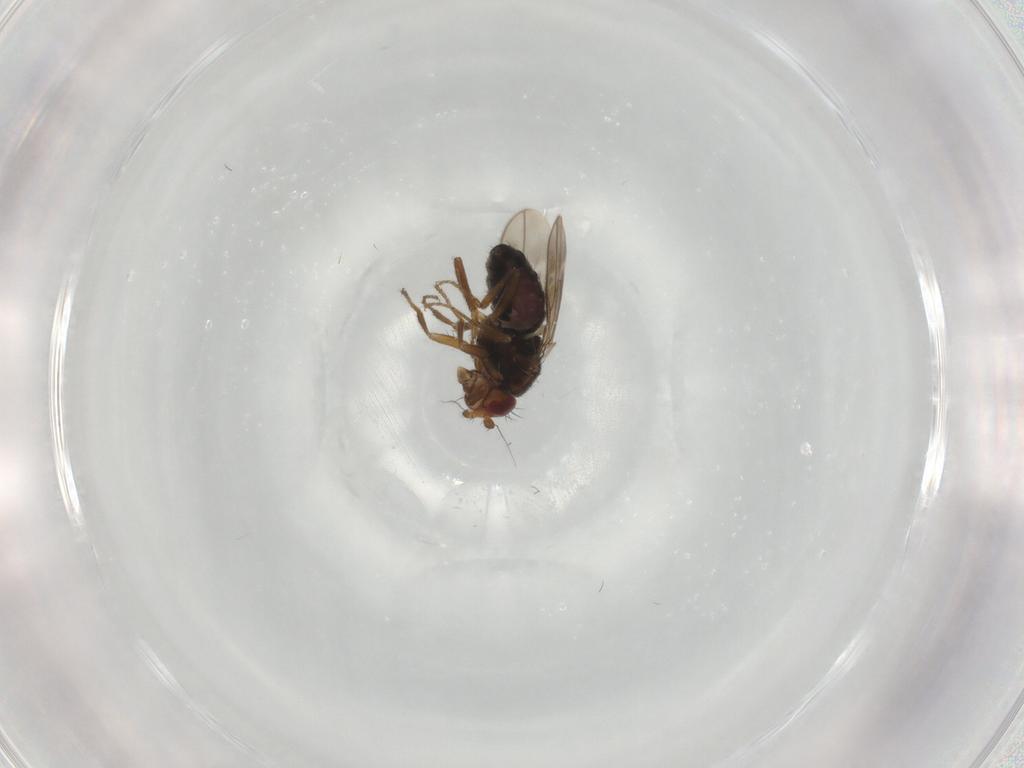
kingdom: Animalia
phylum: Arthropoda
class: Insecta
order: Diptera
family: Sphaeroceridae
